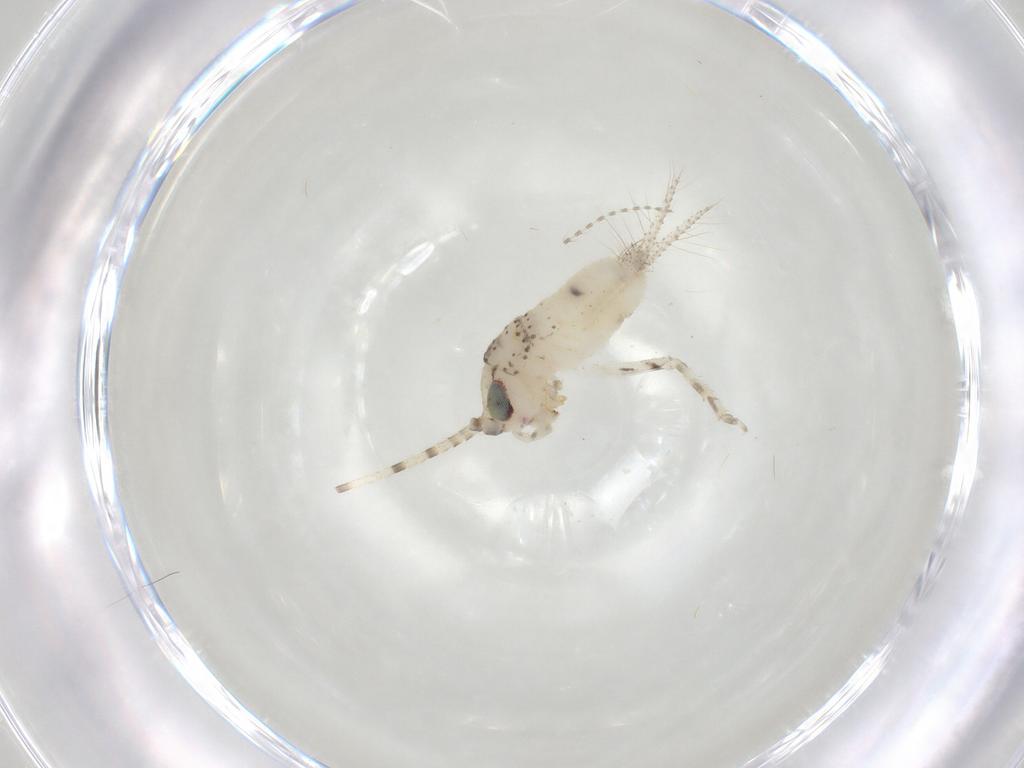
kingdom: Animalia
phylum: Arthropoda
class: Insecta
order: Orthoptera
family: Trigonidiidae
